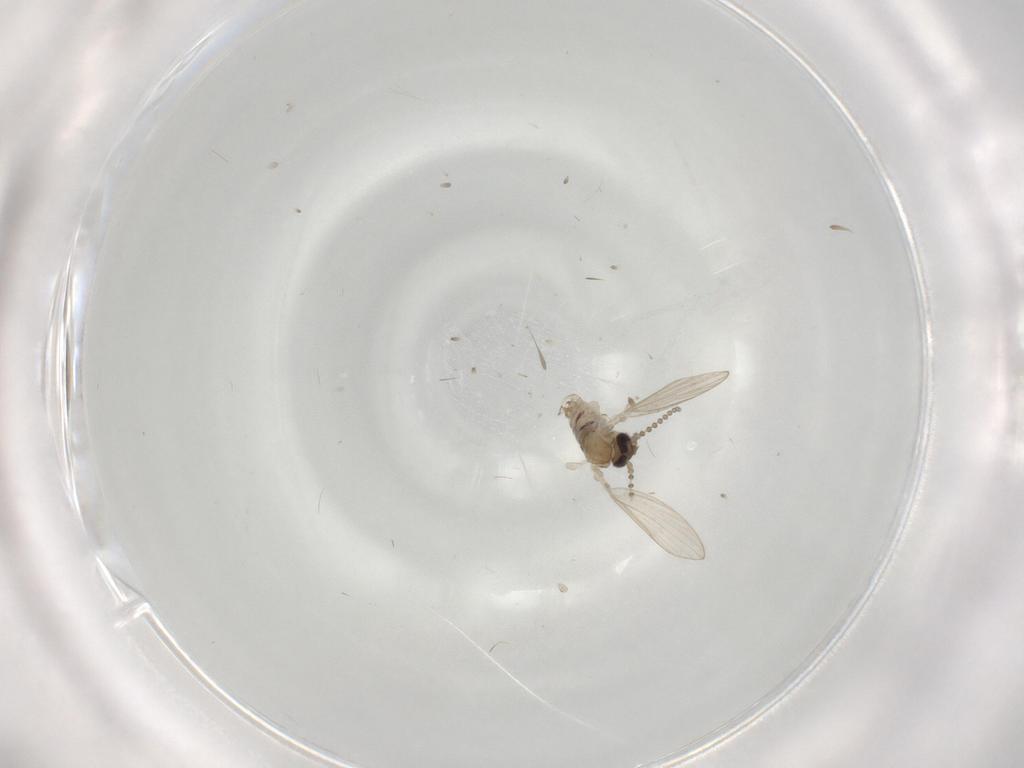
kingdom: Animalia
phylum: Arthropoda
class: Insecta
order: Diptera
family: Psychodidae
